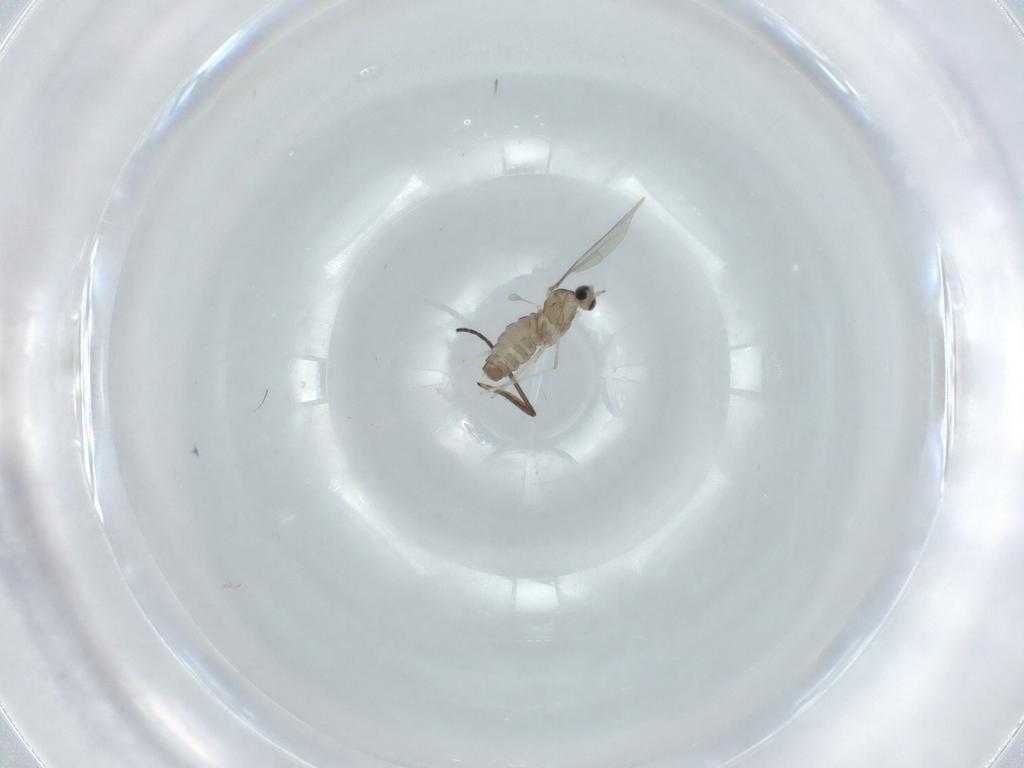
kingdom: Animalia
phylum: Arthropoda
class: Insecta
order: Diptera
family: Cecidomyiidae
